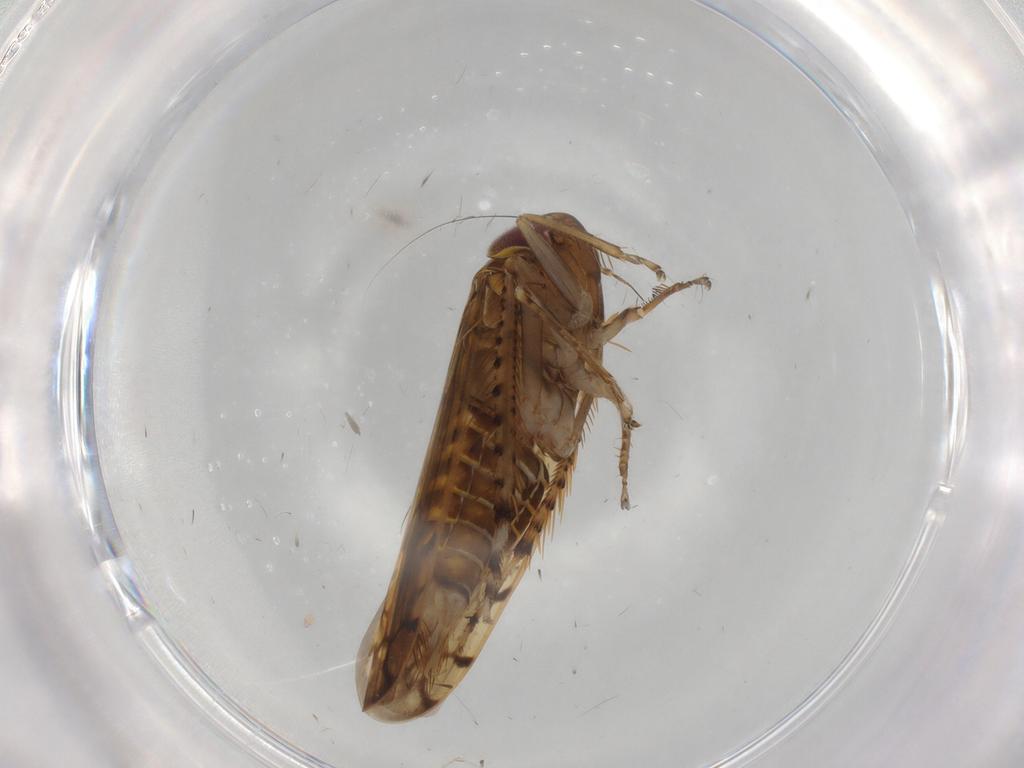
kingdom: Animalia
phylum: Arthropoda
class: Insecta
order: Hemiptera
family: Cicadellidae
